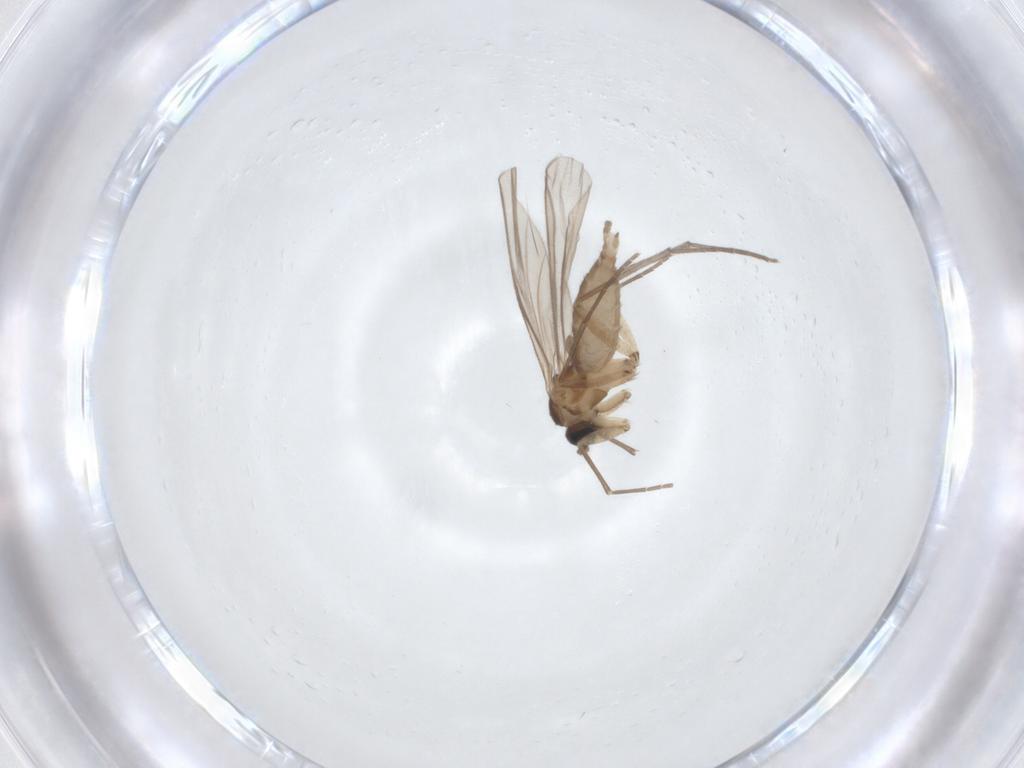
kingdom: Animalia
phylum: Arthropoda
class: Insecta
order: Diptera
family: Sciaridae
